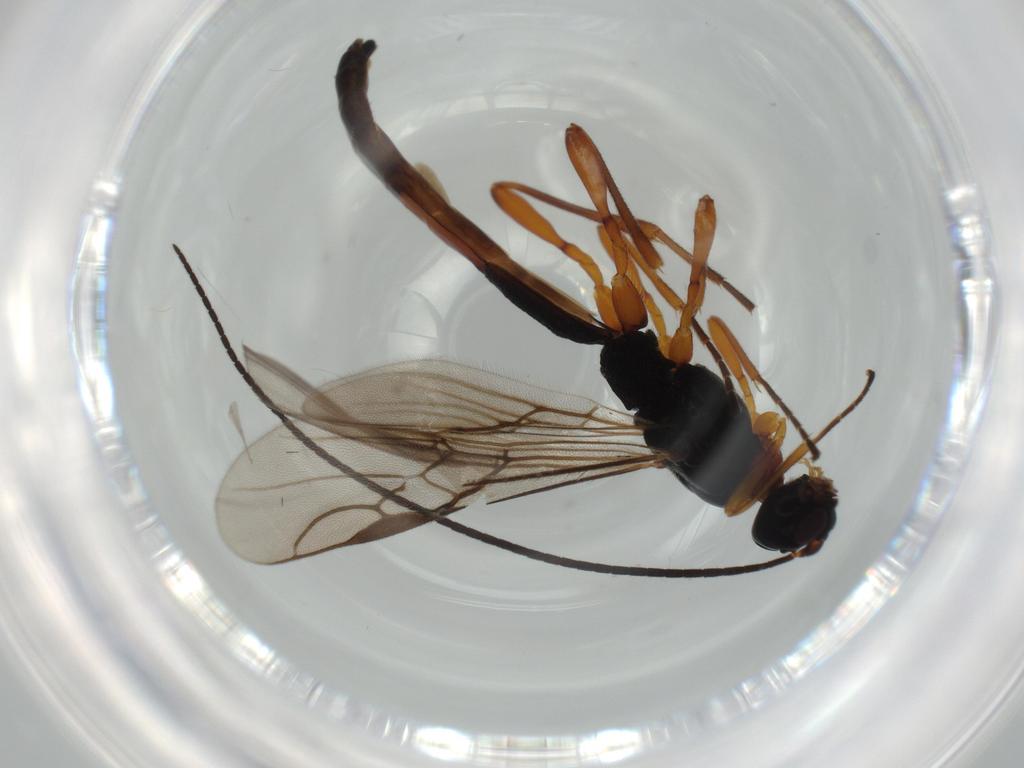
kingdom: Animalia
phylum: Arthropoda
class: Insecta
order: Hymenoptera
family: Braconidae
